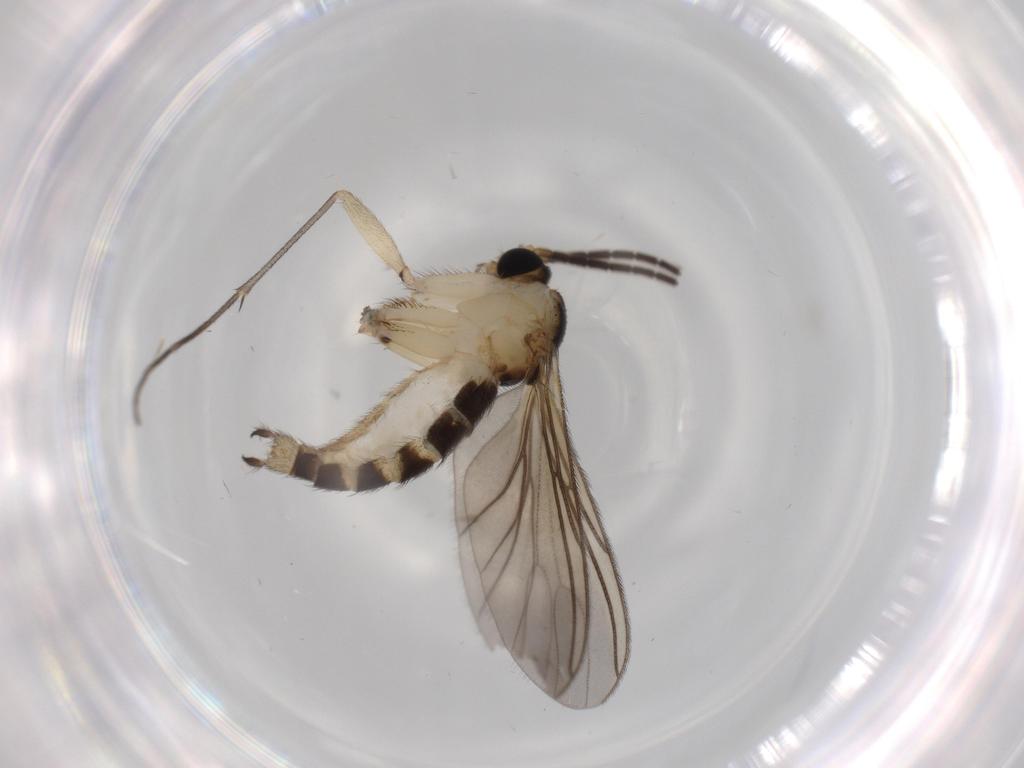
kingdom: Animalia
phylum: Arthropoda
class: Insecta
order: Diptera
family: Sciaridae
